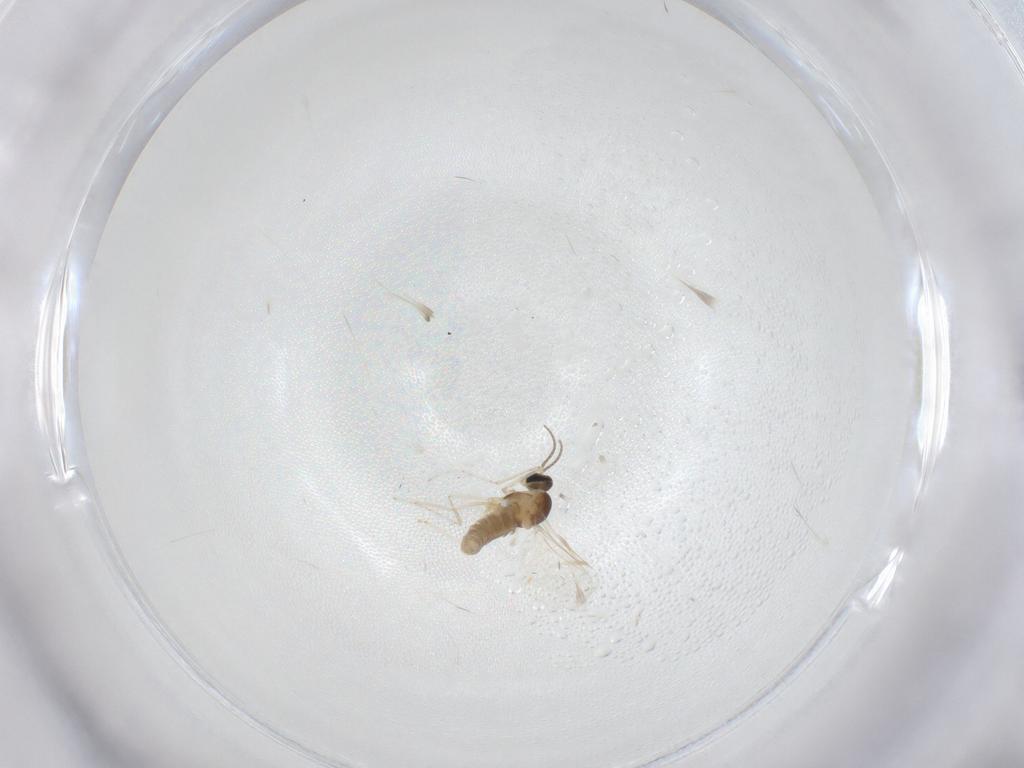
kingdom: Animalia
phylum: Arthropoda
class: Insecta
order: Diptera
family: Cecidomyiidae
